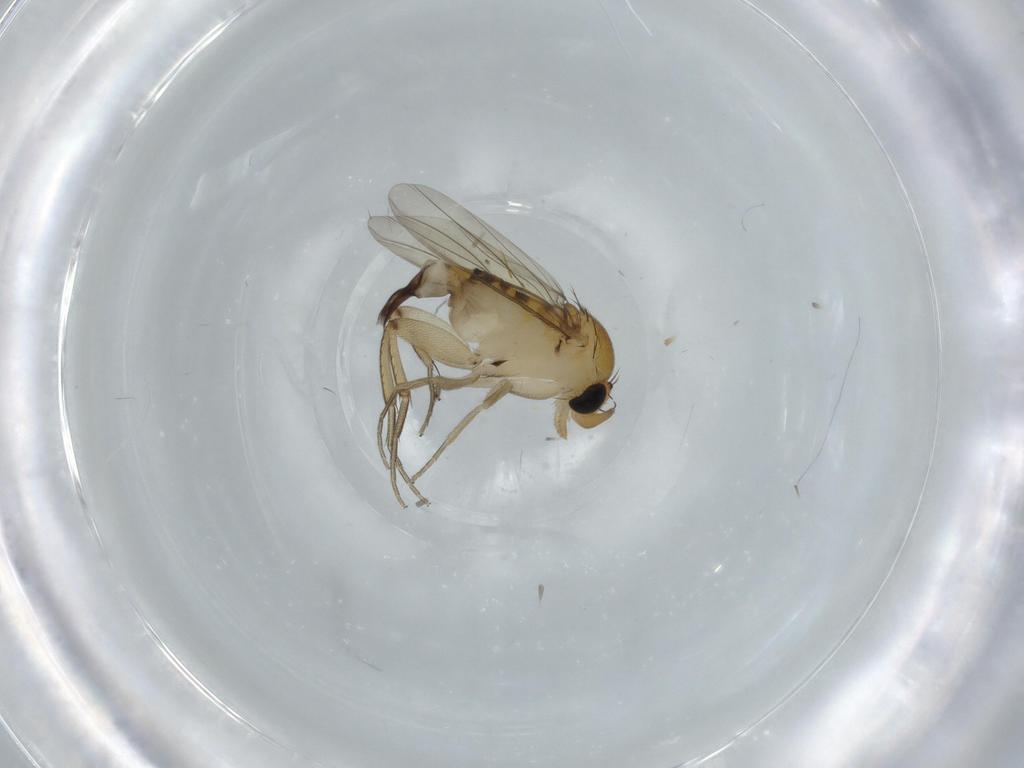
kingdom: Animalia
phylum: Arthropoda
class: Insecta
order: Diptera
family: Phoridae
